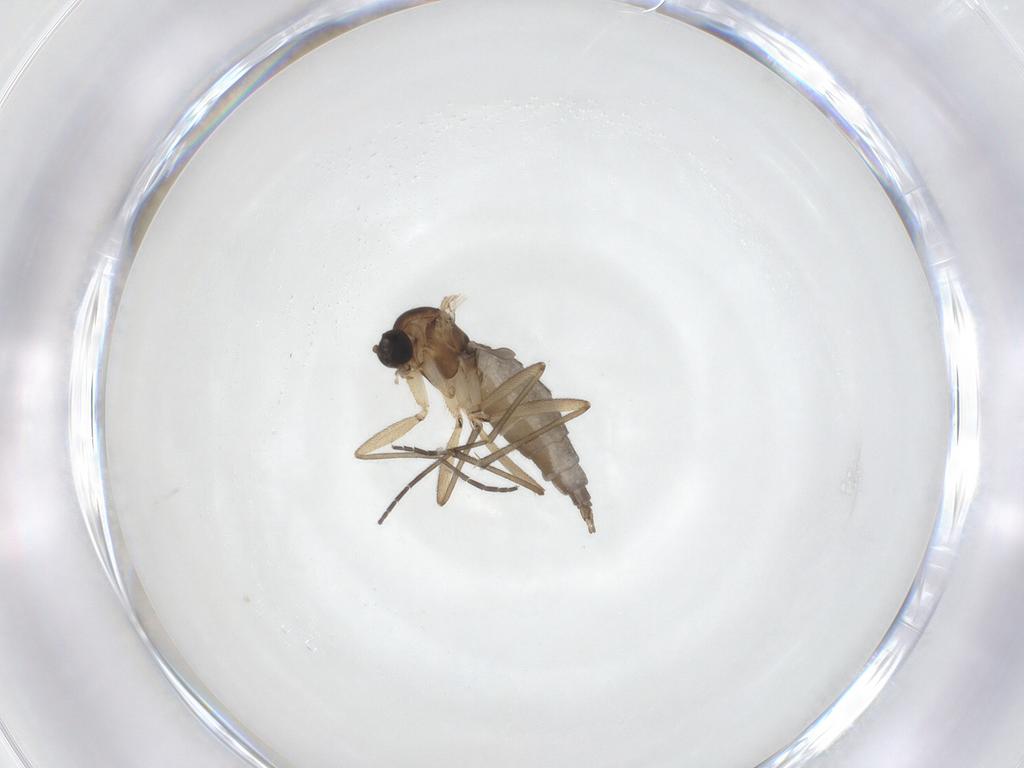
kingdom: Animalia
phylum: Arthropoda
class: Insecta
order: Diptera
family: Sciaridae
